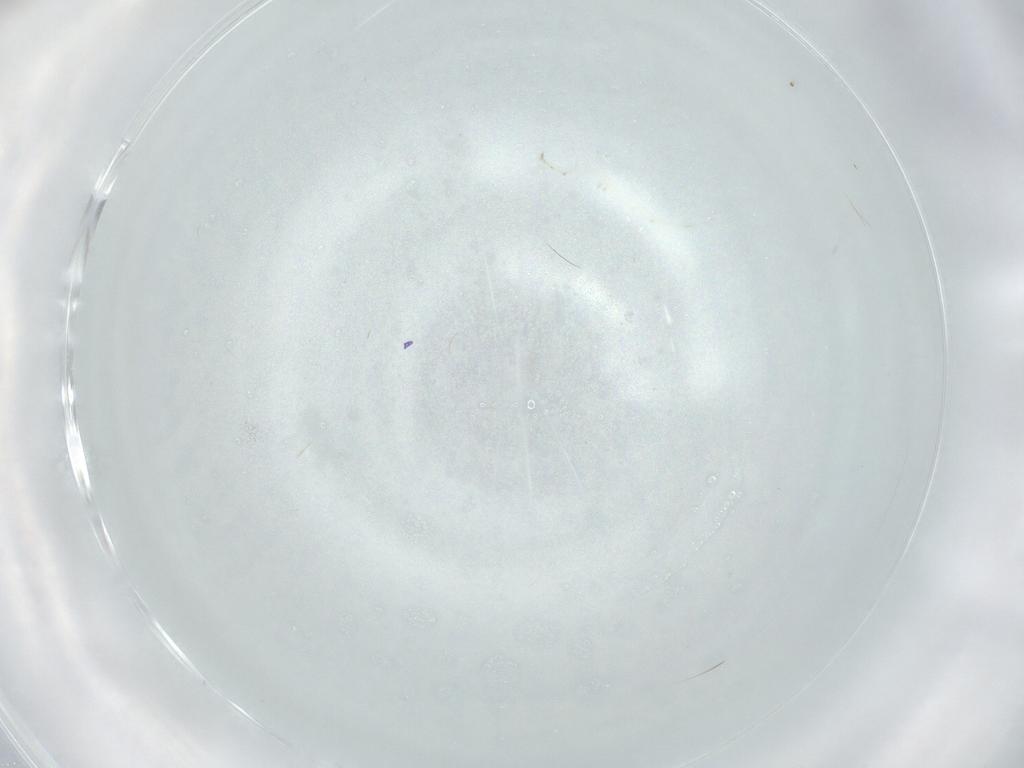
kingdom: Animalia
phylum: Arthropoda
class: Insecta
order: Diptera
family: Cecidomyiidae
